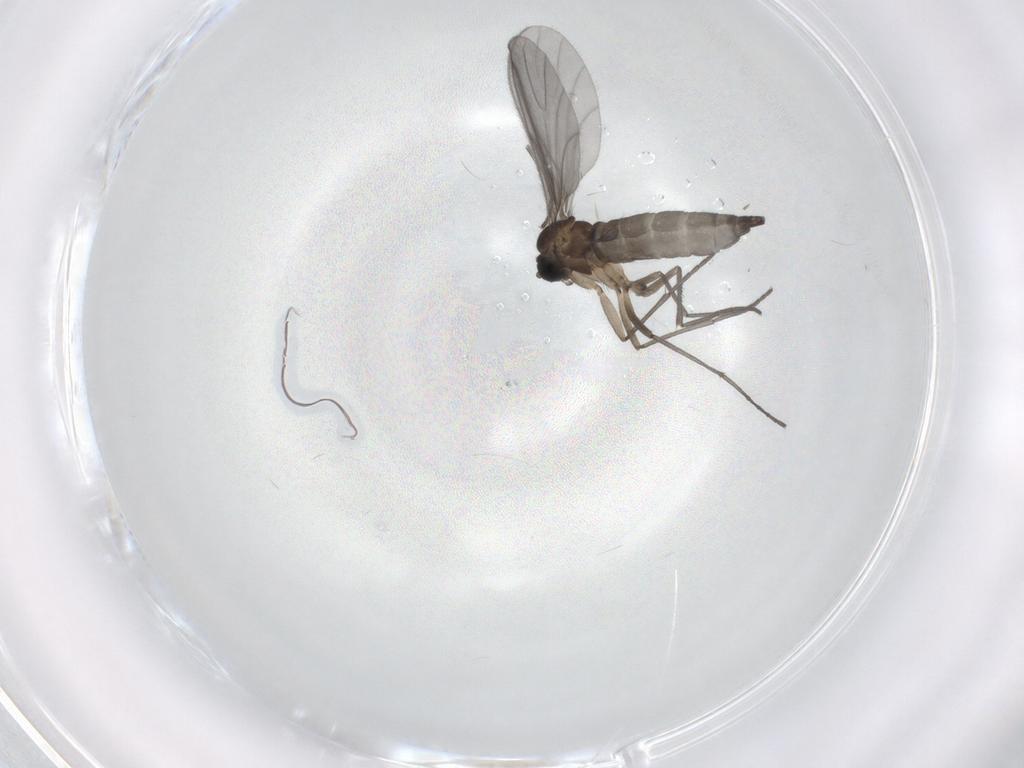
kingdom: Animalia
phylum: Arthropoda
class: Insecta
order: Diptera
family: Sciaridae
